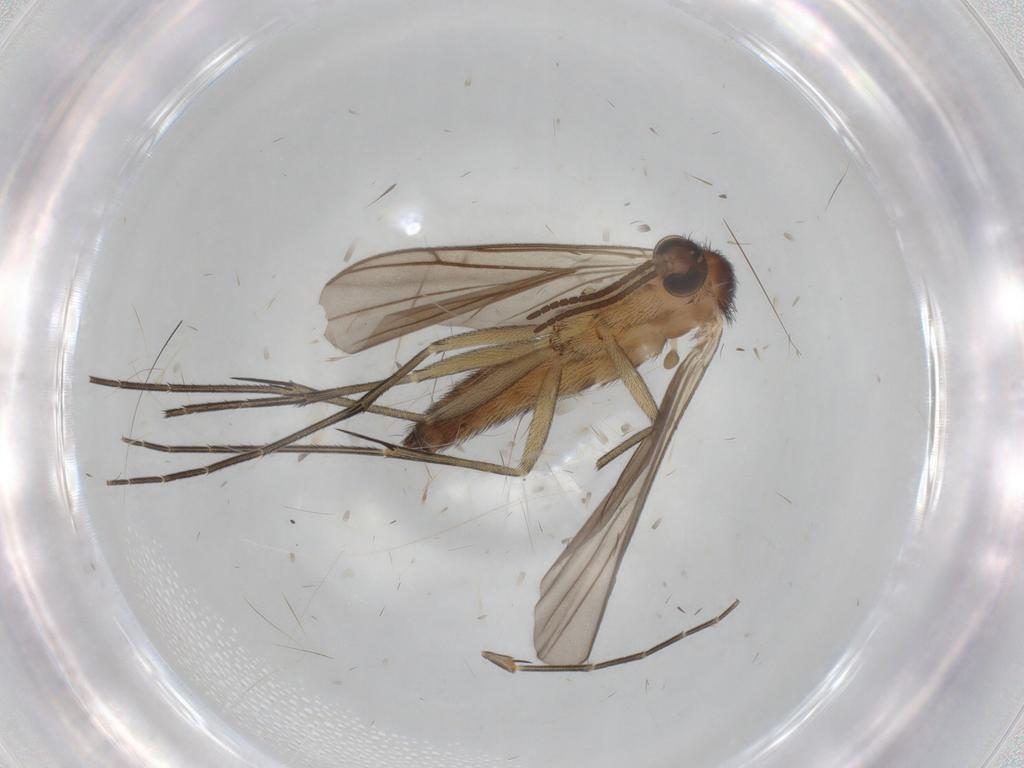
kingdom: Animalia
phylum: Arthropoda
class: Insecta
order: Diptera
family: Keroplatidae
